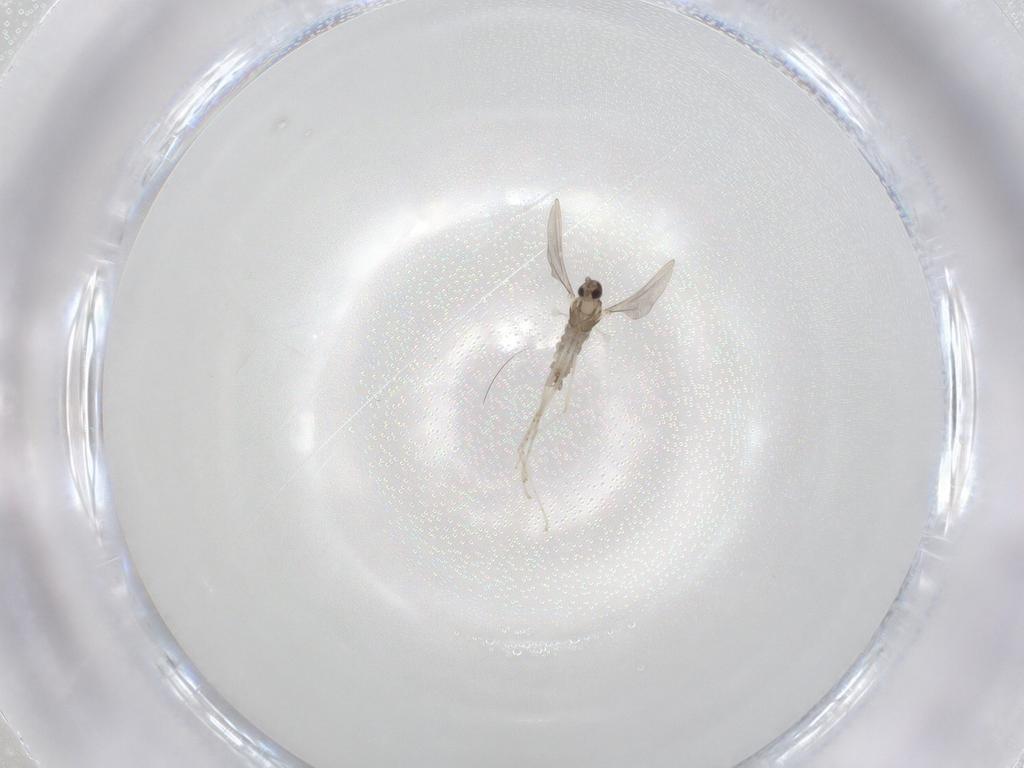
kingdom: Animalia
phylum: Arthropoda
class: Insecta
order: Diptera
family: Cecidomyiidae
